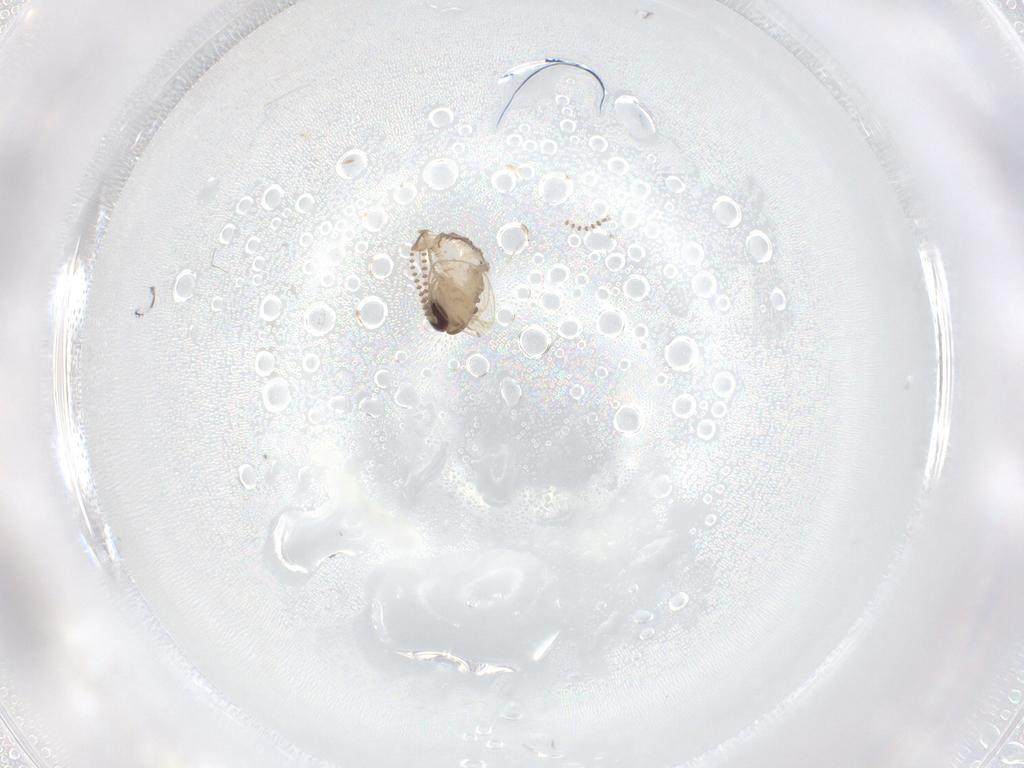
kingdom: Animalia
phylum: Arthropoda
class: Insecta
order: Diptera
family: Psychodidae
